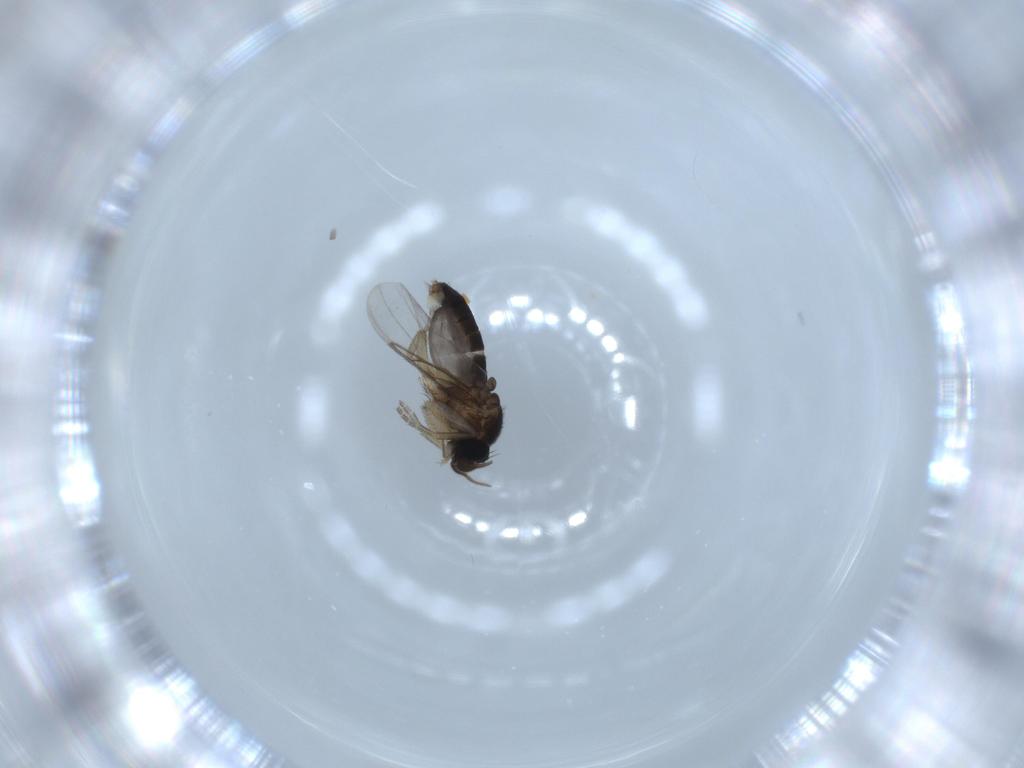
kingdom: Animalia
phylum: Arthropoda
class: Insecta
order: Diptera
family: Phoridae
